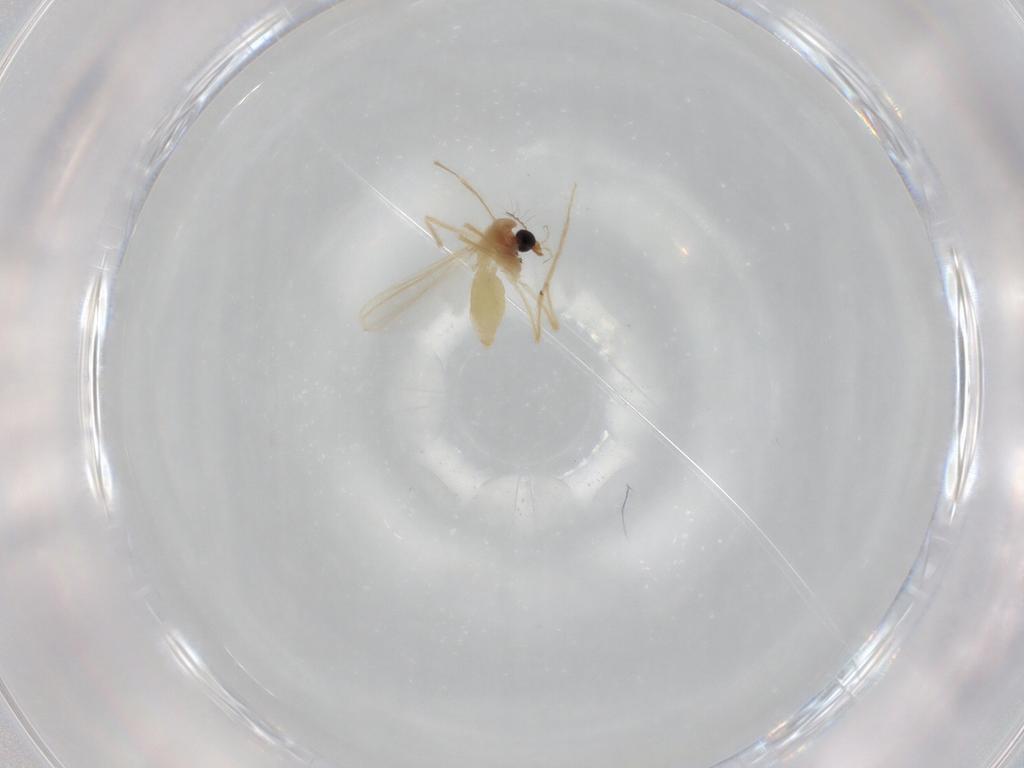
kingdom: Animalia
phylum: Arthropoda
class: Insecta
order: Diptera
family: Chironomidae
